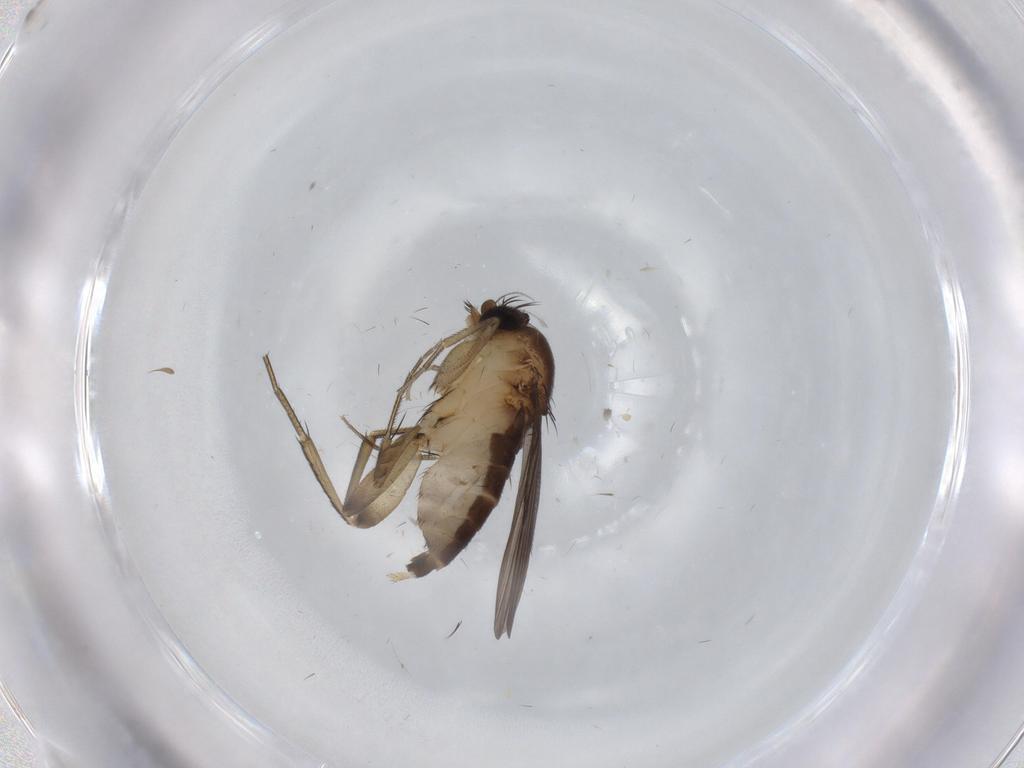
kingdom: Animalia
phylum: Arthropoda
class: Insecta
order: Diptera
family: Phoridae
